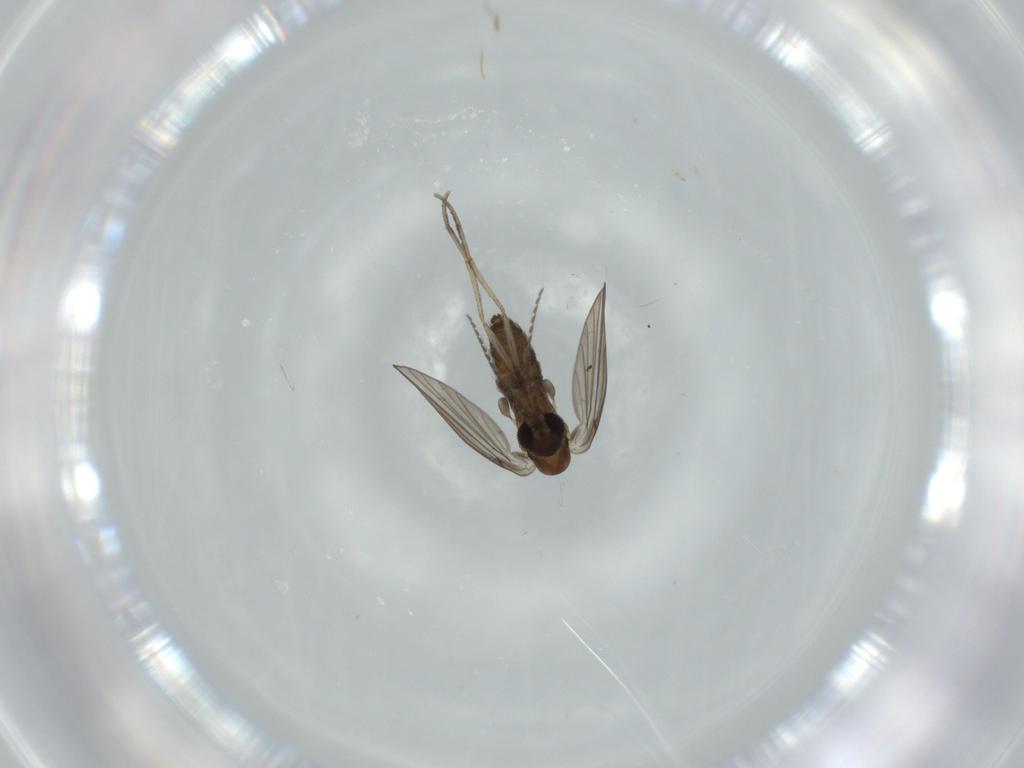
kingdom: Animalia
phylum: Arthropoda
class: Insecta
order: Diptera
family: Psychodidae
